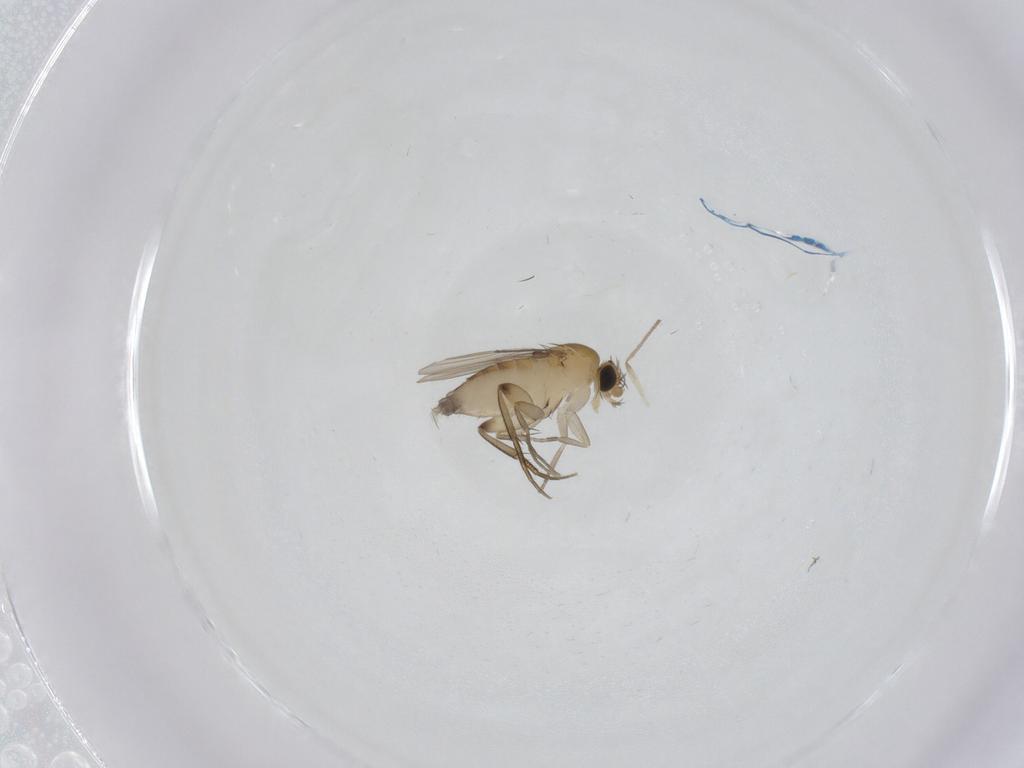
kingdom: Animalia
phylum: Arthropoda
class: Insecta
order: Diptera
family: Phoridae
